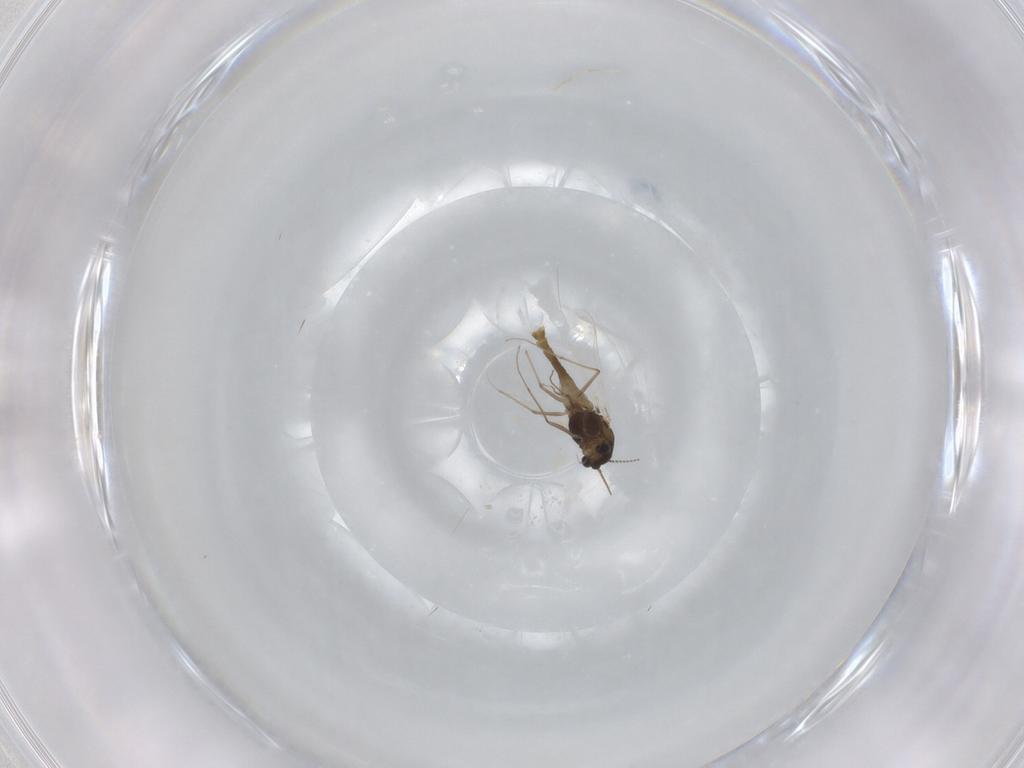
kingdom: Animalia
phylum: Arthropoda
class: Insecta
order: Diptera
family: Chironomidae
